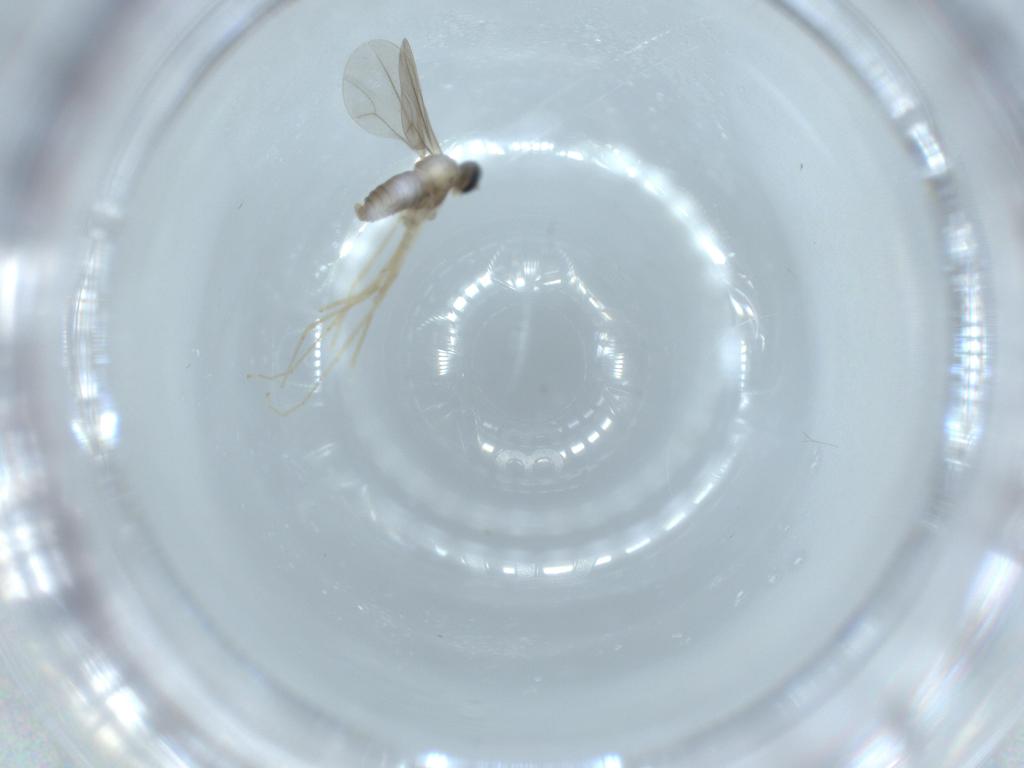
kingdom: Animalia
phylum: Arthropoda
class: Insecta
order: Diptera
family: Cecidomyiidae
